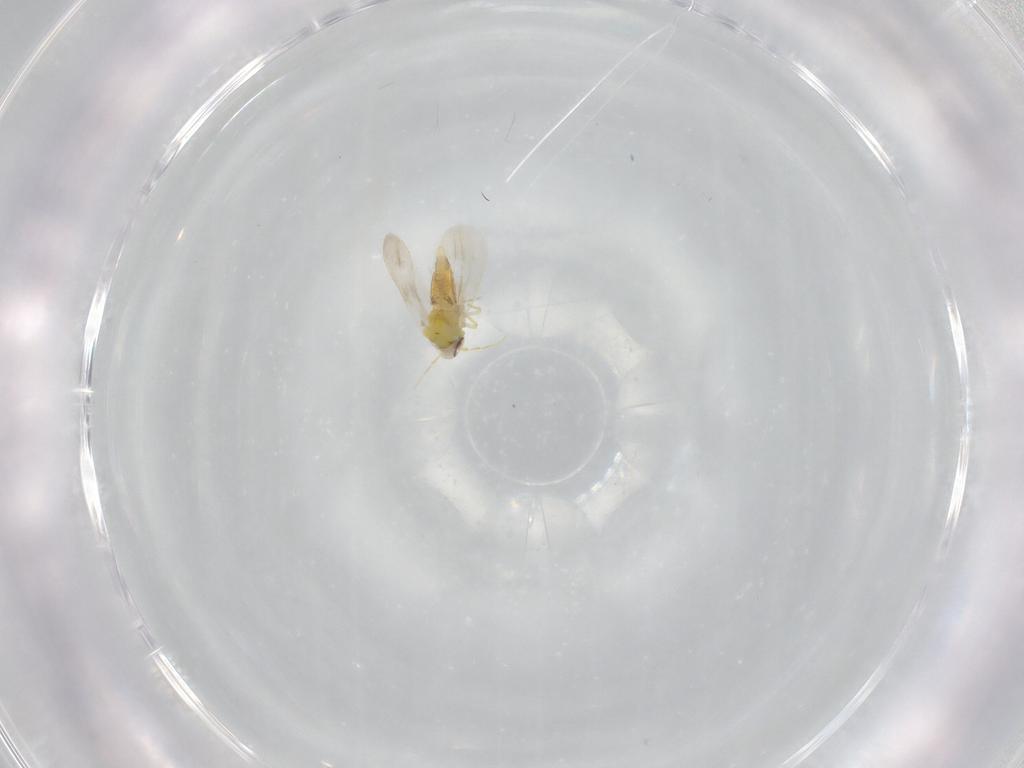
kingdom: Animalia
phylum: Arthropoda
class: Insecta
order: Hemiptera
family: Aleyrodidae
